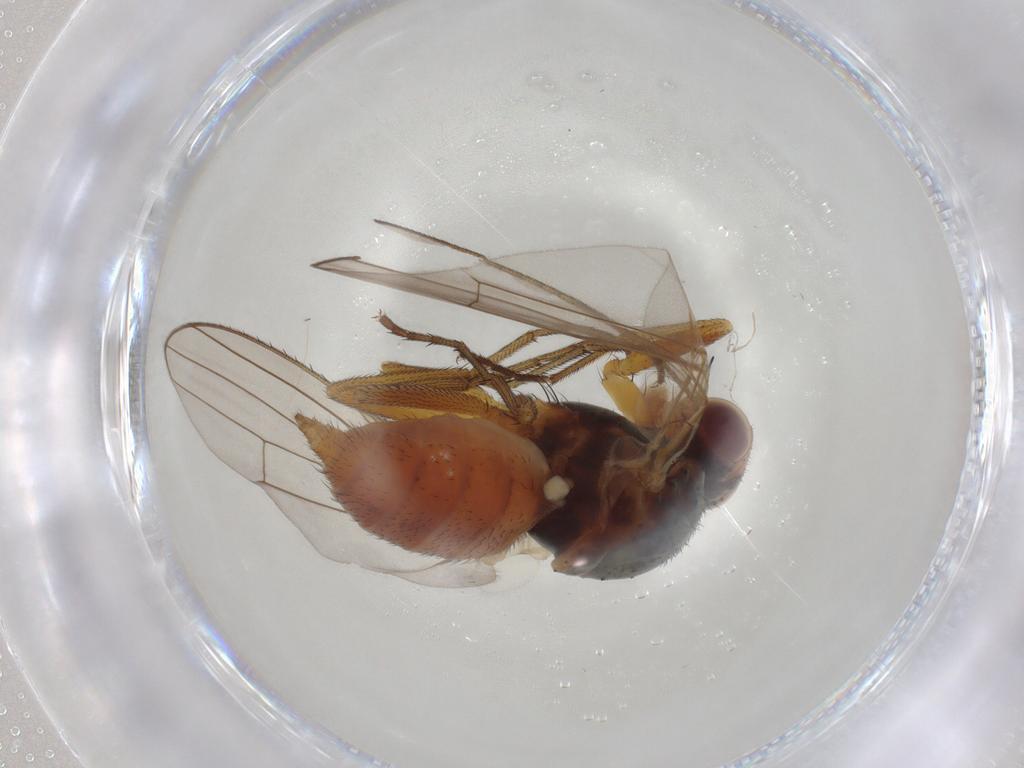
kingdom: Animalia
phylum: Arthropoda
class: Insecta
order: Diptera
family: Heleomyzidae
